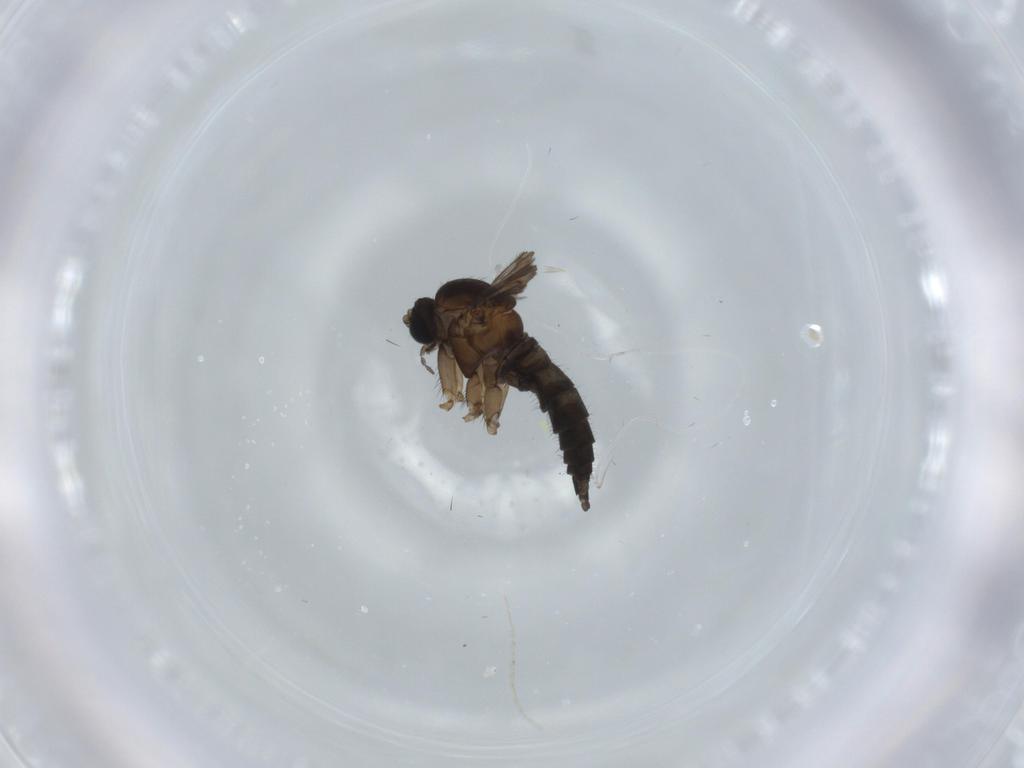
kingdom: Animalia
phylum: Arthropoda
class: Insecta
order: Diptera
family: Sciaridae
